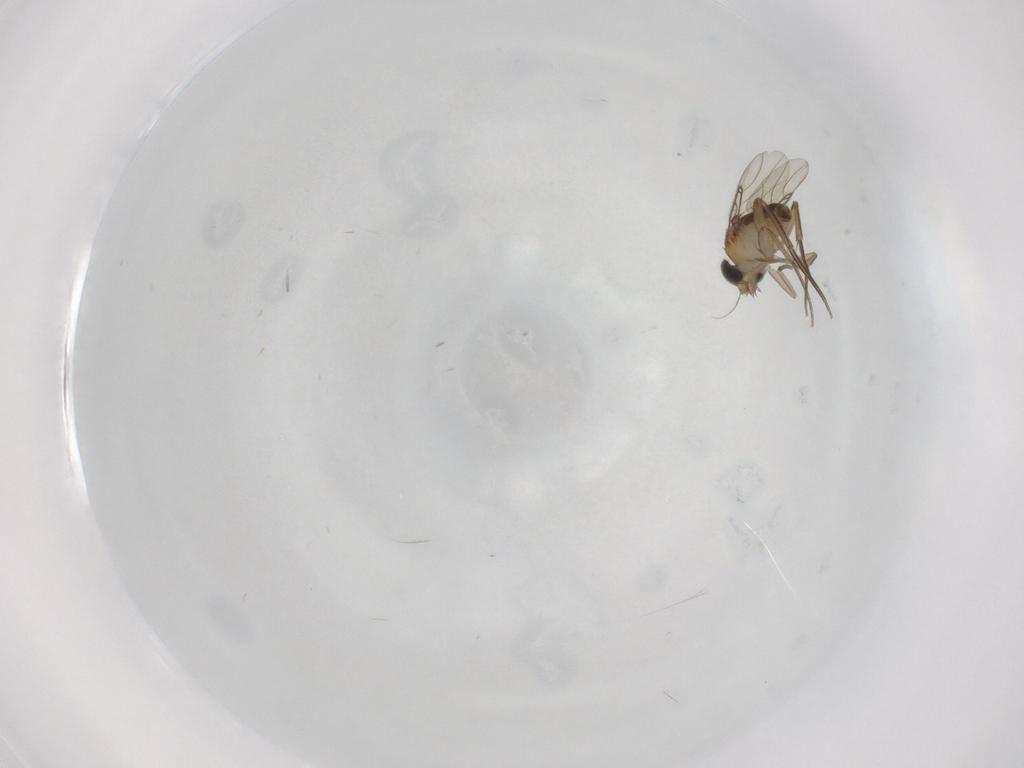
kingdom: Animalia
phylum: Arthropoda
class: Insecta
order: Diptera
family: Phoridae
